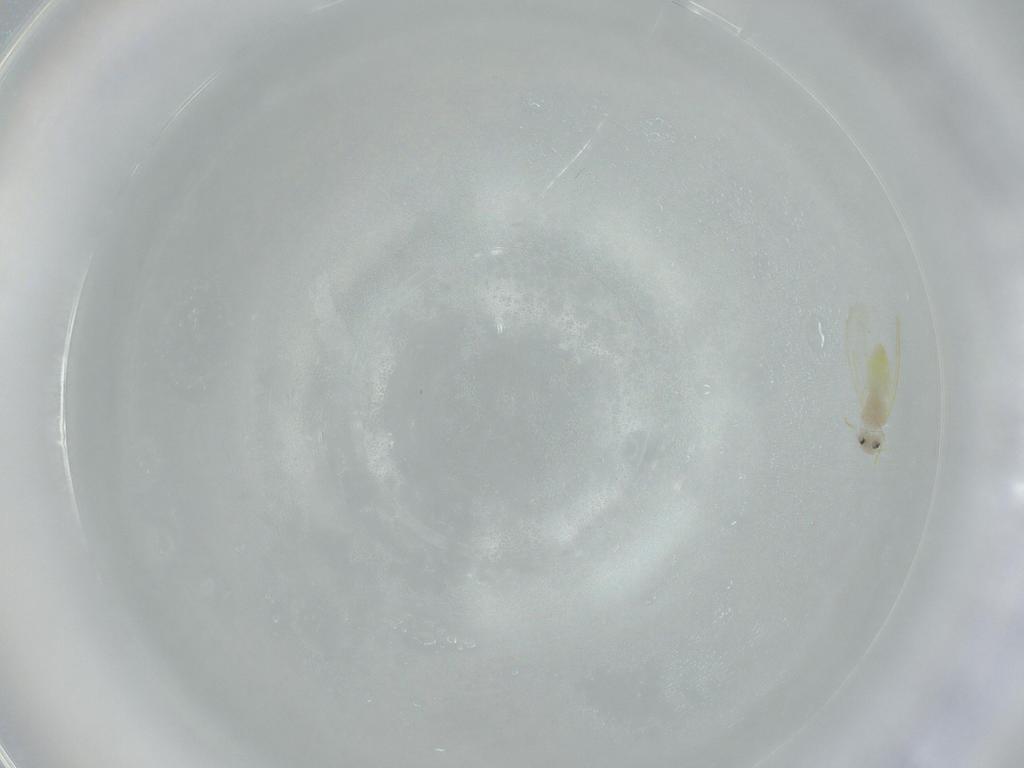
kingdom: Animalia
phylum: Arthropoda
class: Insecta
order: Hemiptera
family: Aleyrodidae
